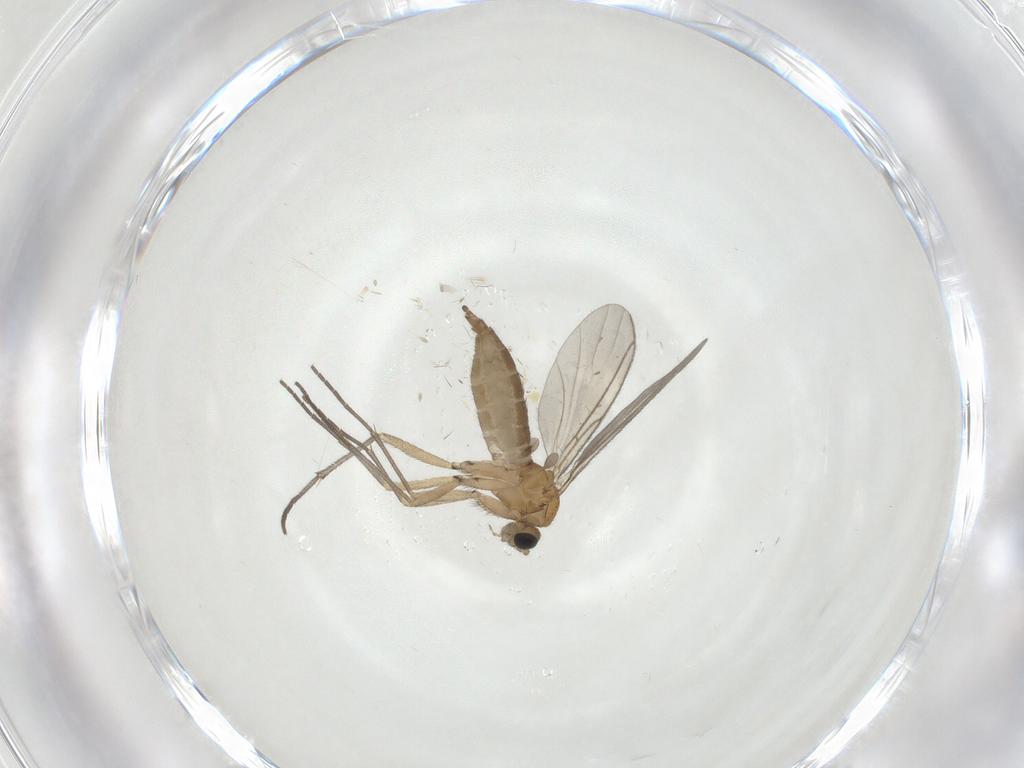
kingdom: Animalia
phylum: Arthropoda
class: Insecta
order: Diptera
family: Sciaridae
